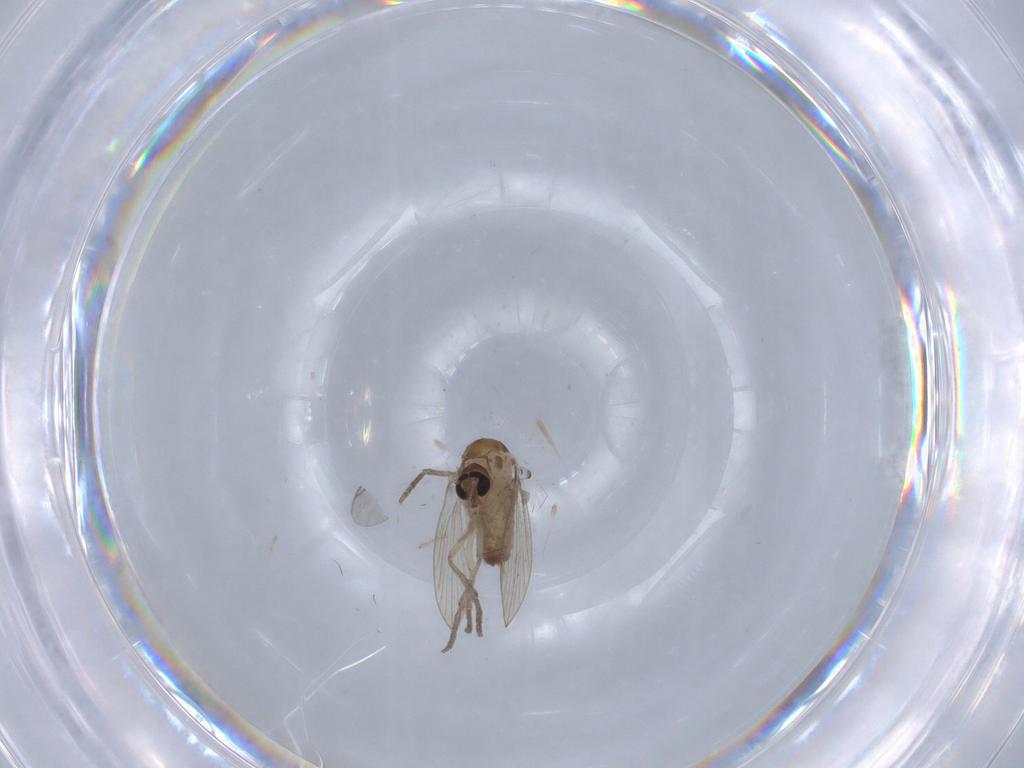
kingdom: Animalia
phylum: Arthropoda
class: Insecta
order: Diptera
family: Psychodidae
